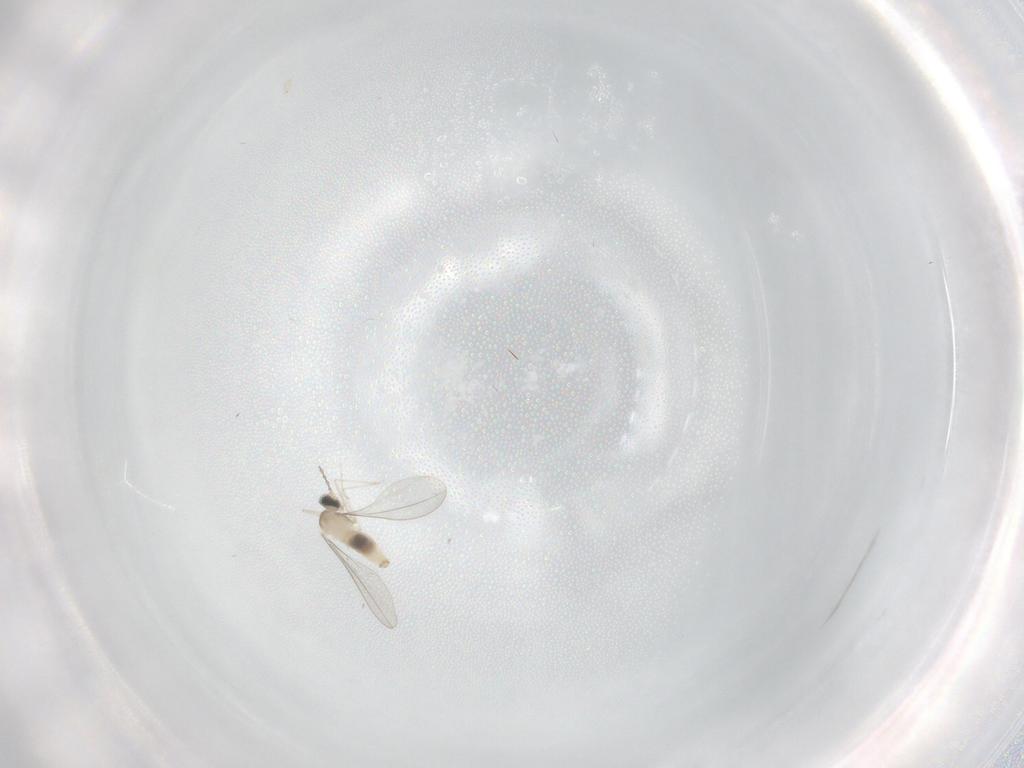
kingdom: Animalia
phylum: Arthropoda
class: Insecta
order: Diptera
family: Cecidomyiidae
